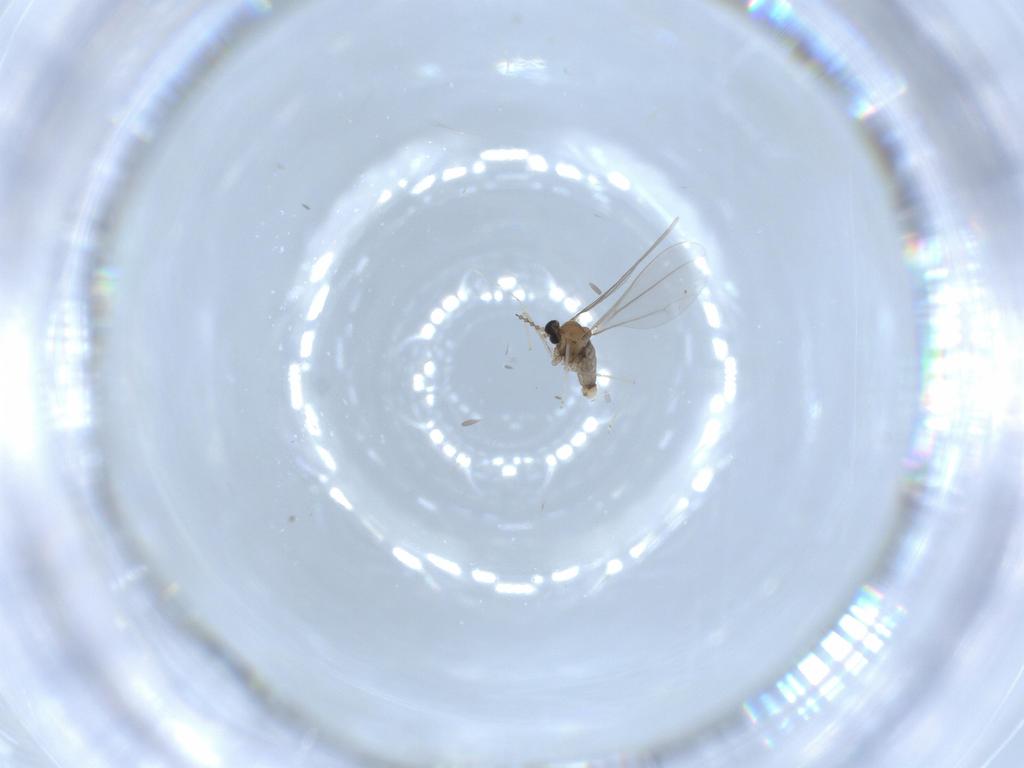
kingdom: Animalia
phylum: Arthropoda
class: Insecta
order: Diptera
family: Cecidomyiidae
